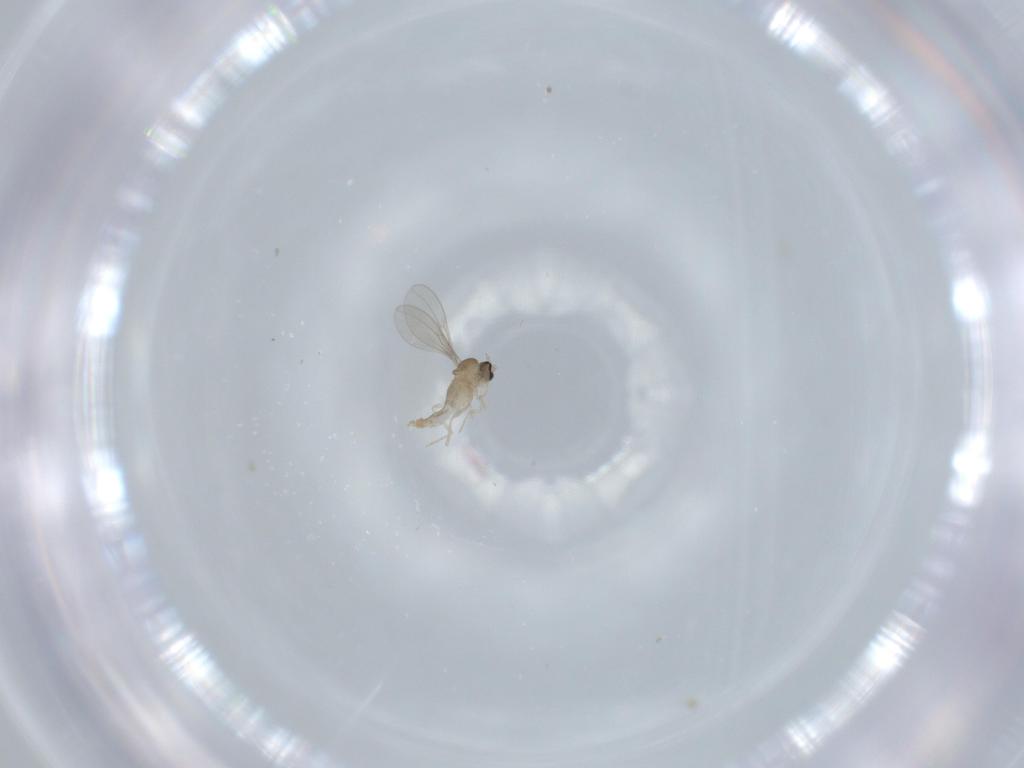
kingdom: Animalia
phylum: Arthropoda
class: Insecta
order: Diptera
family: Cecidomyiidae
